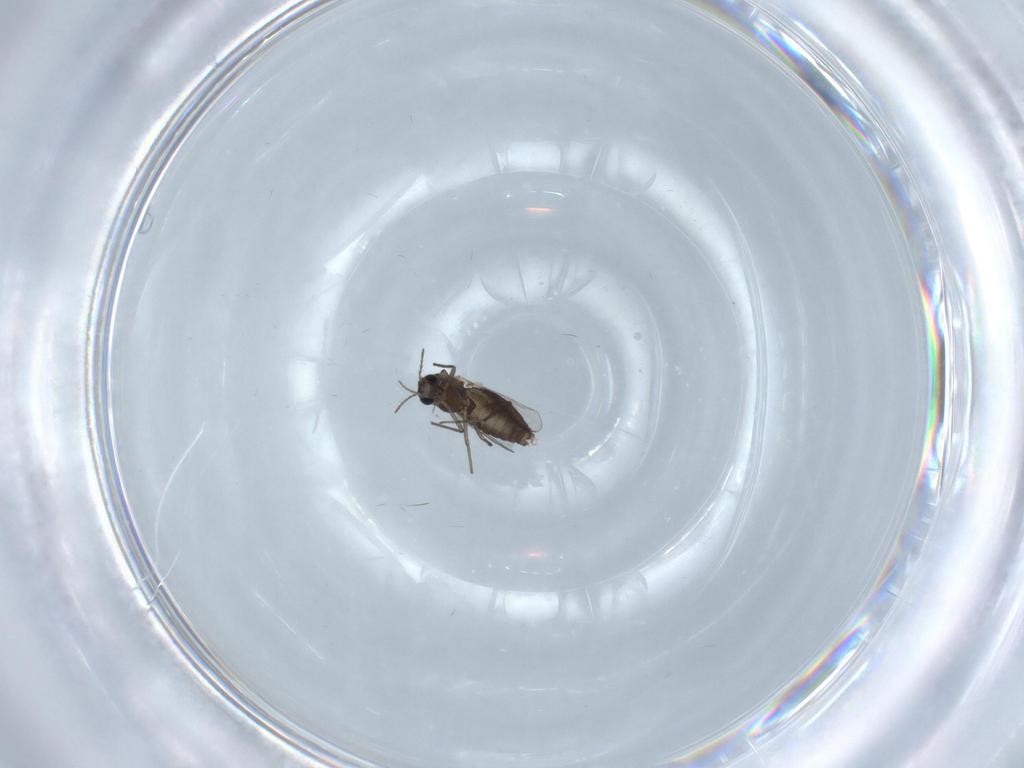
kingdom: Animalia
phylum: Arthropoda
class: Insecta
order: Diptera
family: Chironomidae
